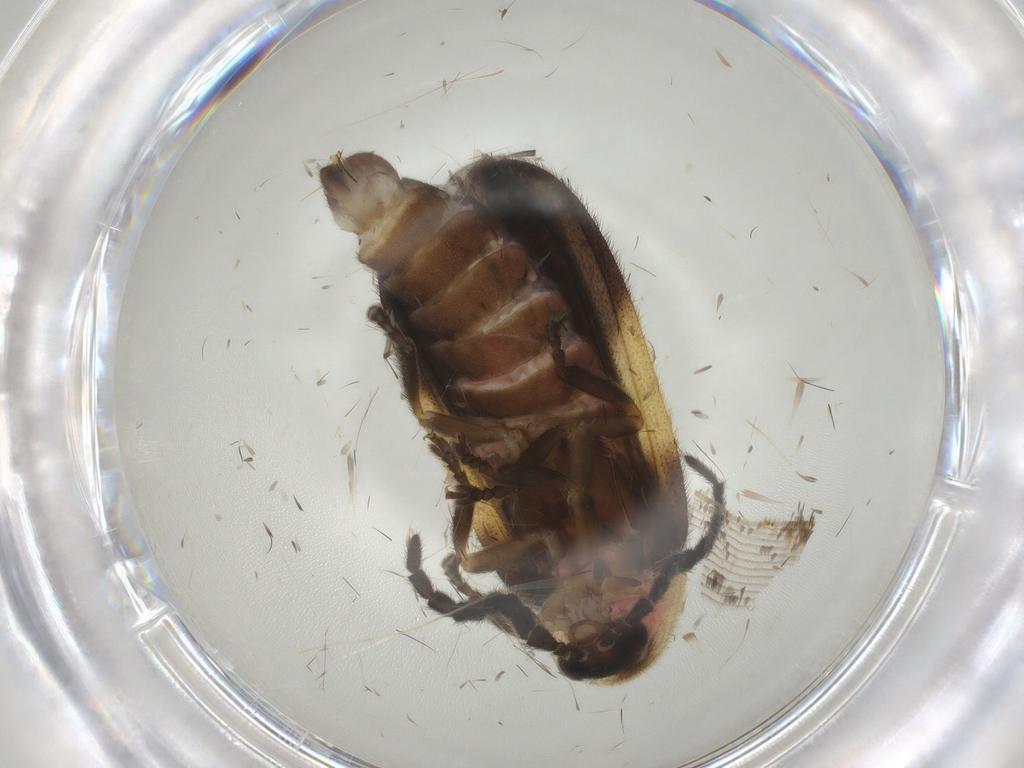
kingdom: Animalia
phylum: Arthropoda
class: Insecta
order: Coleoptera
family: Lampyridae
